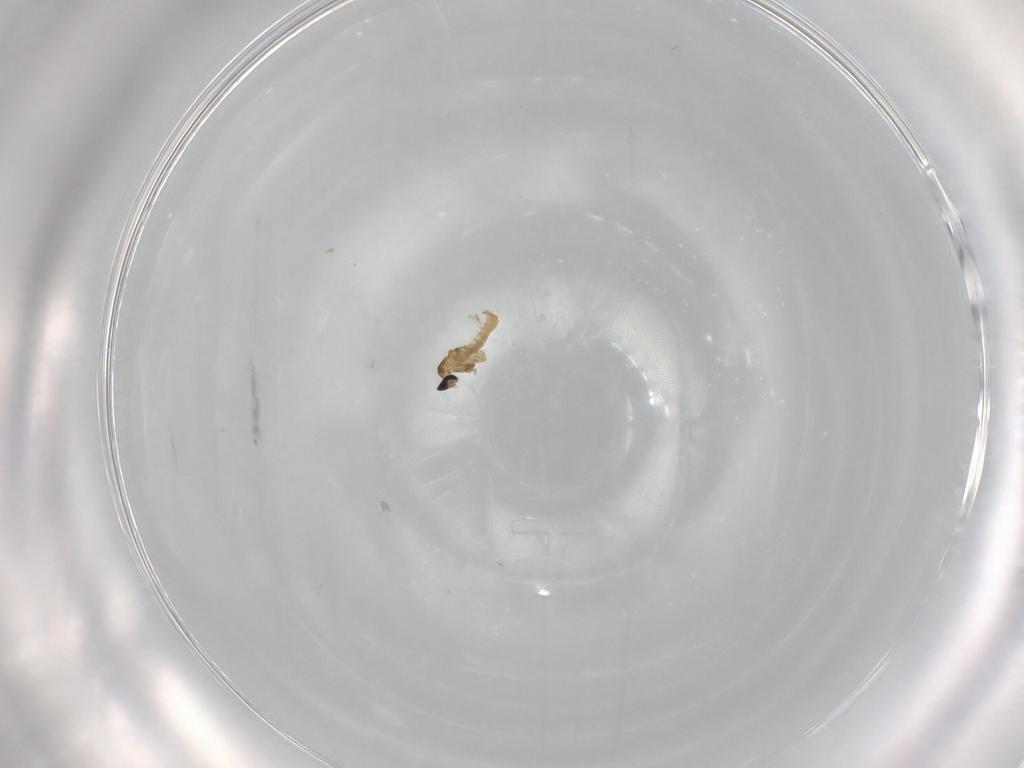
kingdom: Animalia
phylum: Arthropoda
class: Insecta
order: Diptera
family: Cecidomyiidae
